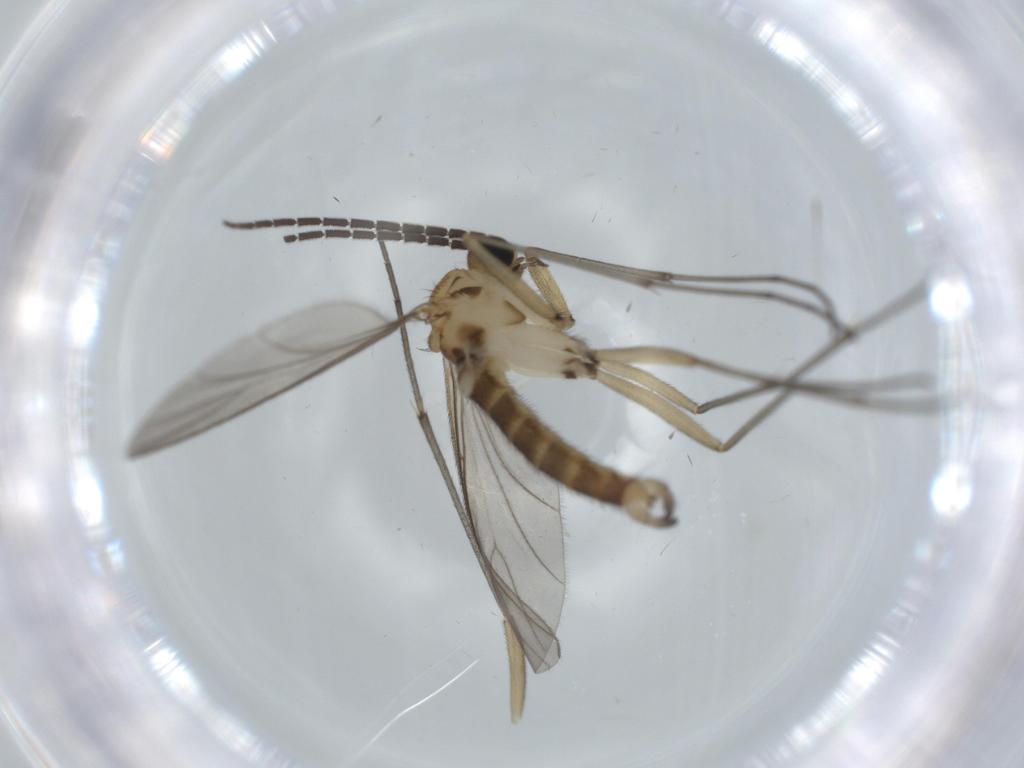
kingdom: Animalia
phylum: Arthropoda
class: Insecta
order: Diptera
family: Sciaridae
